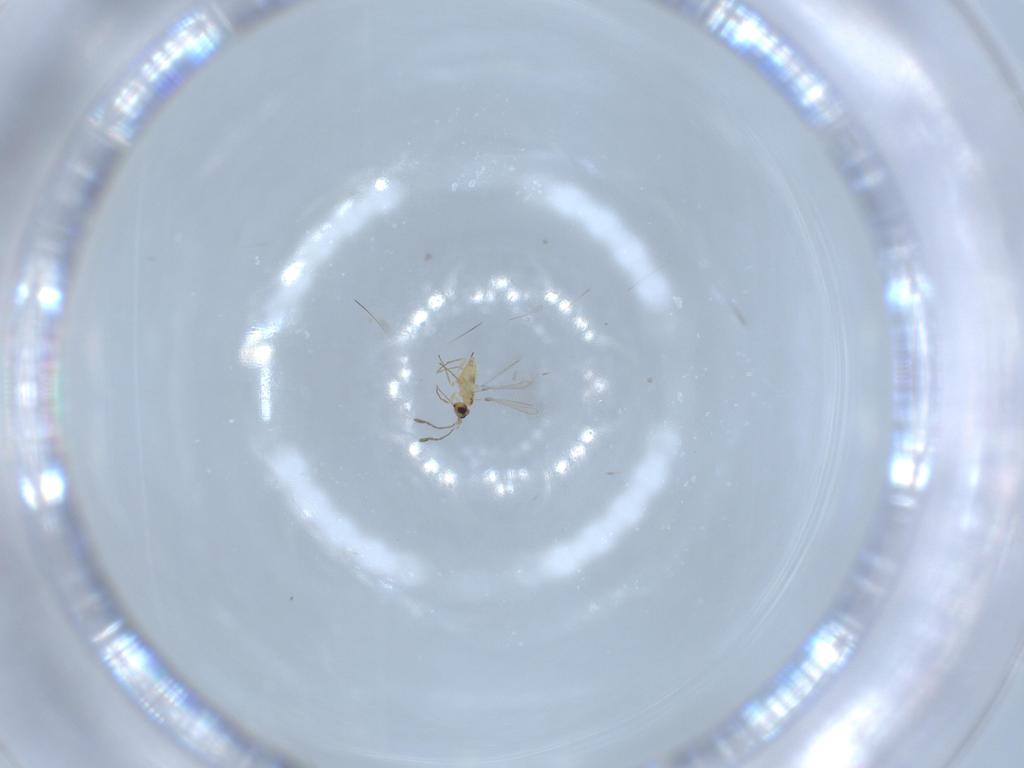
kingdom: Animalia
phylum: Arthropoda
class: Insecta
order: Hymenoptera
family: Mymaridae
